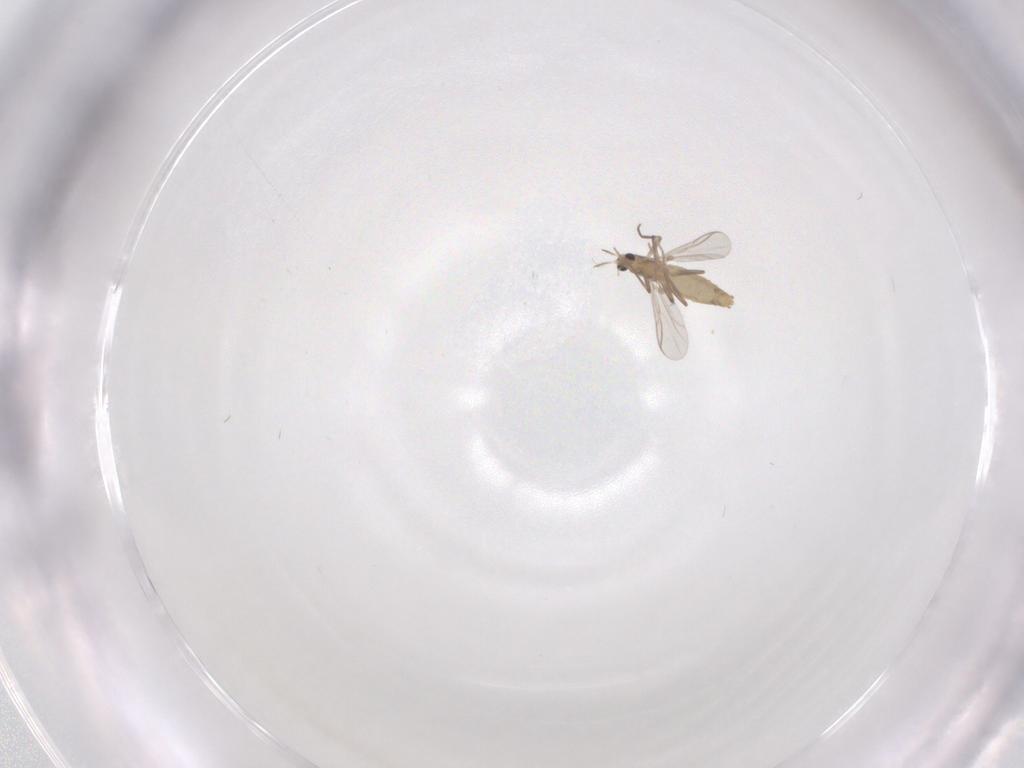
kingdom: Animalia
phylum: Arthropoda
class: Insecta
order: Diptera
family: Chironomidae
